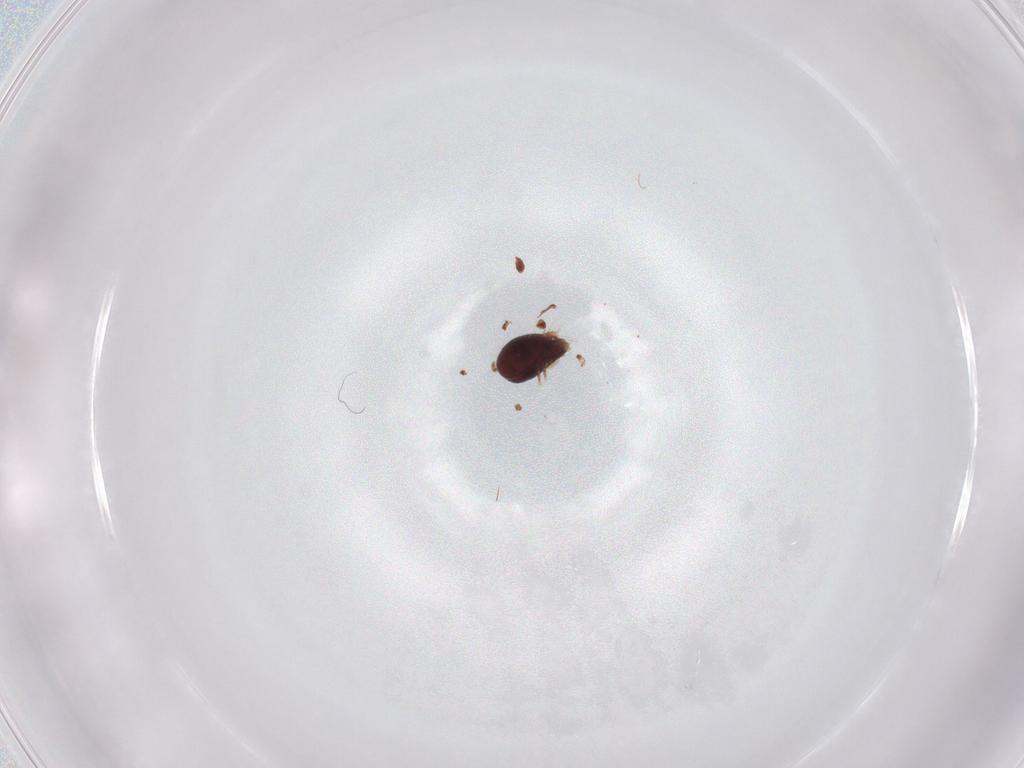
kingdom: Animalia
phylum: Arthropoda
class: Arachnida
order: Sarcoptiformes
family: Humerobatidae
